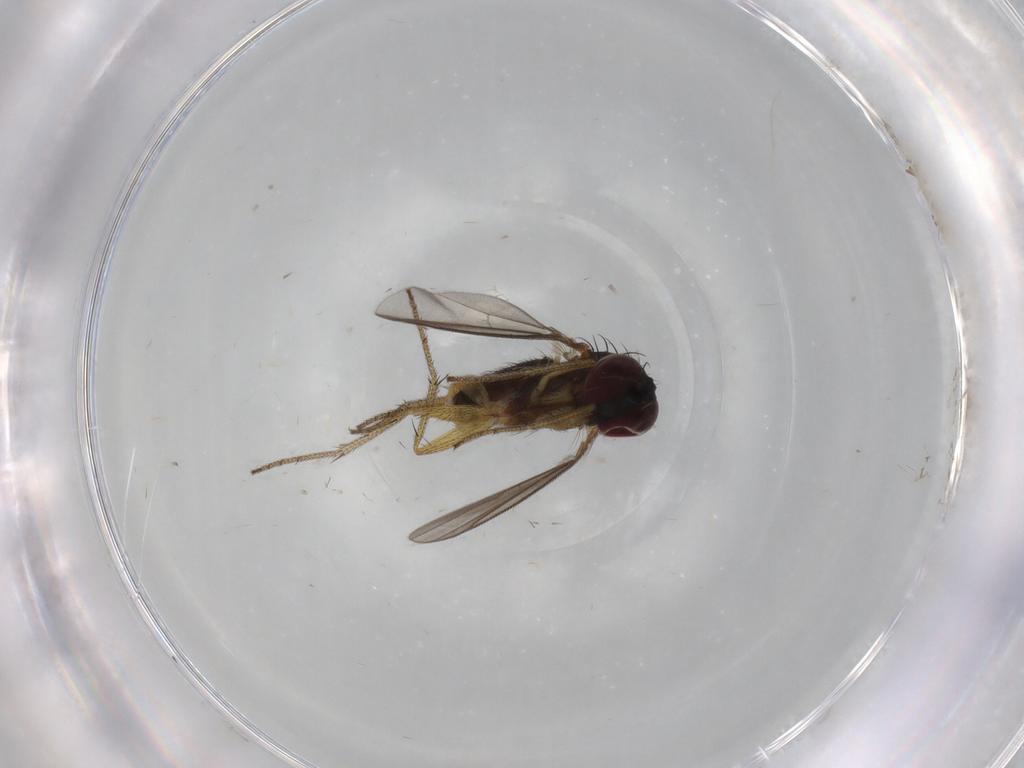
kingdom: Animalia
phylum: Arthropoda
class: Insecta
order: Diptera
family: Dolichopodidae
